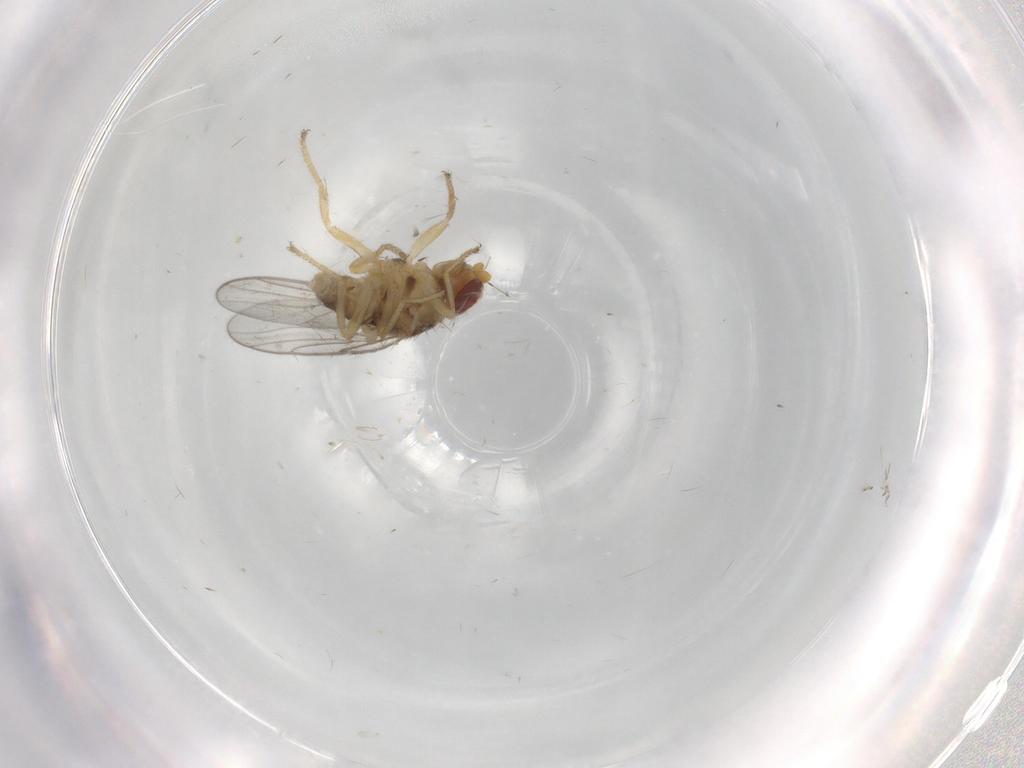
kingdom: Animalia
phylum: Arthropoda
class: Insecta
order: Diptera
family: Chloropidae
